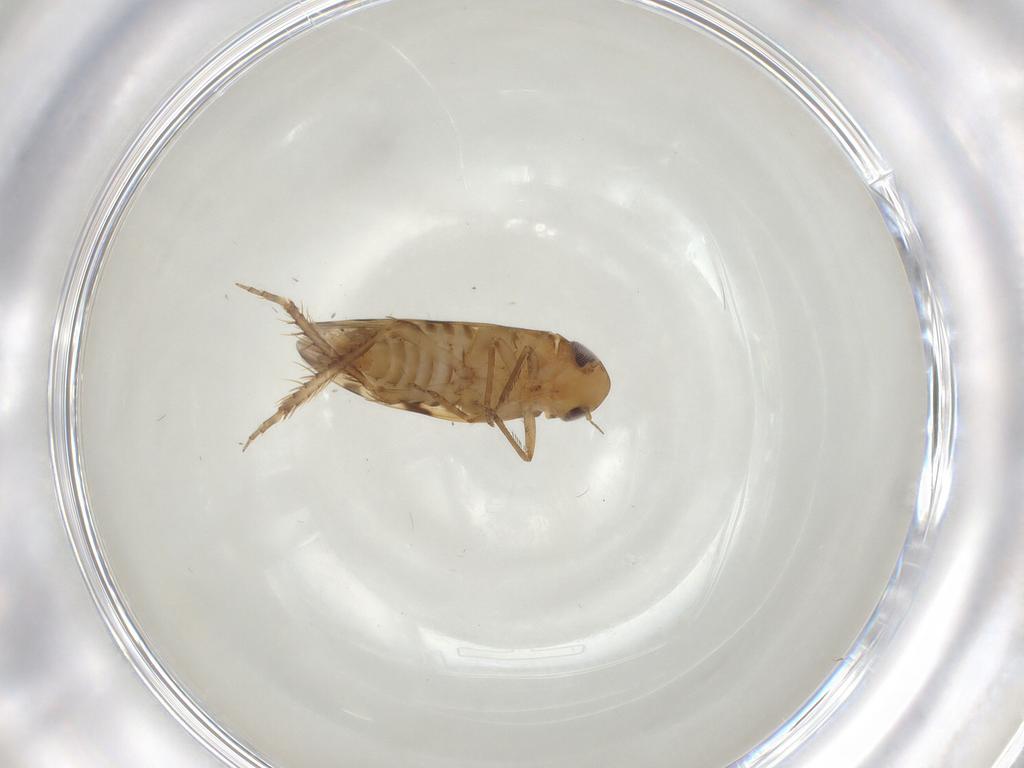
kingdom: Animalia
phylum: Arthropoda
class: Insecta
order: Hemiptera
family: Cicadellidae
